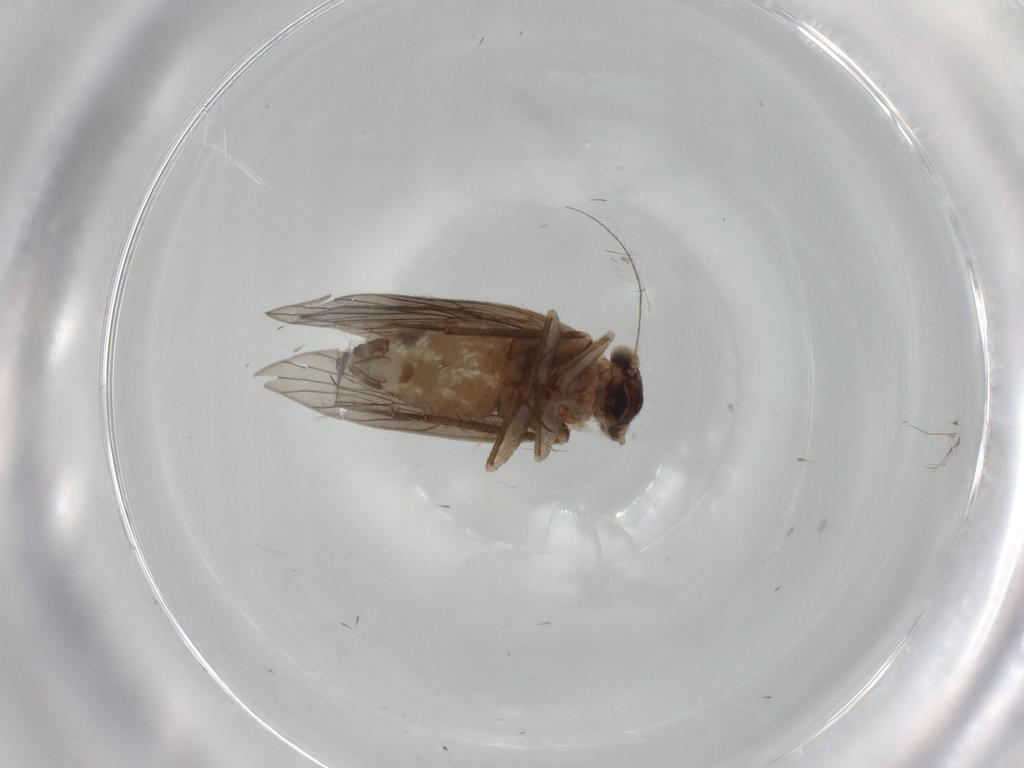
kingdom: Animalia
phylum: Arthropoda
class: Insecta
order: Psocodea
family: Lepidopsocidae
